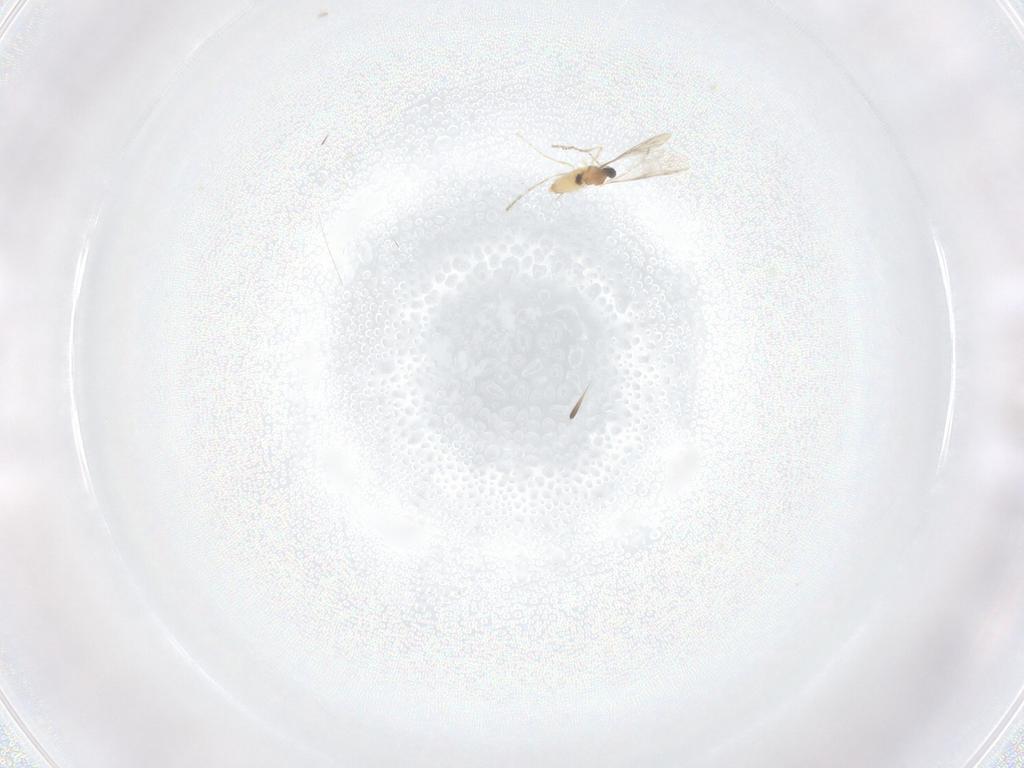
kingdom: Animalia
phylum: Arthropoda
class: Insecta
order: Diptera
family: Cecidomyiidae
